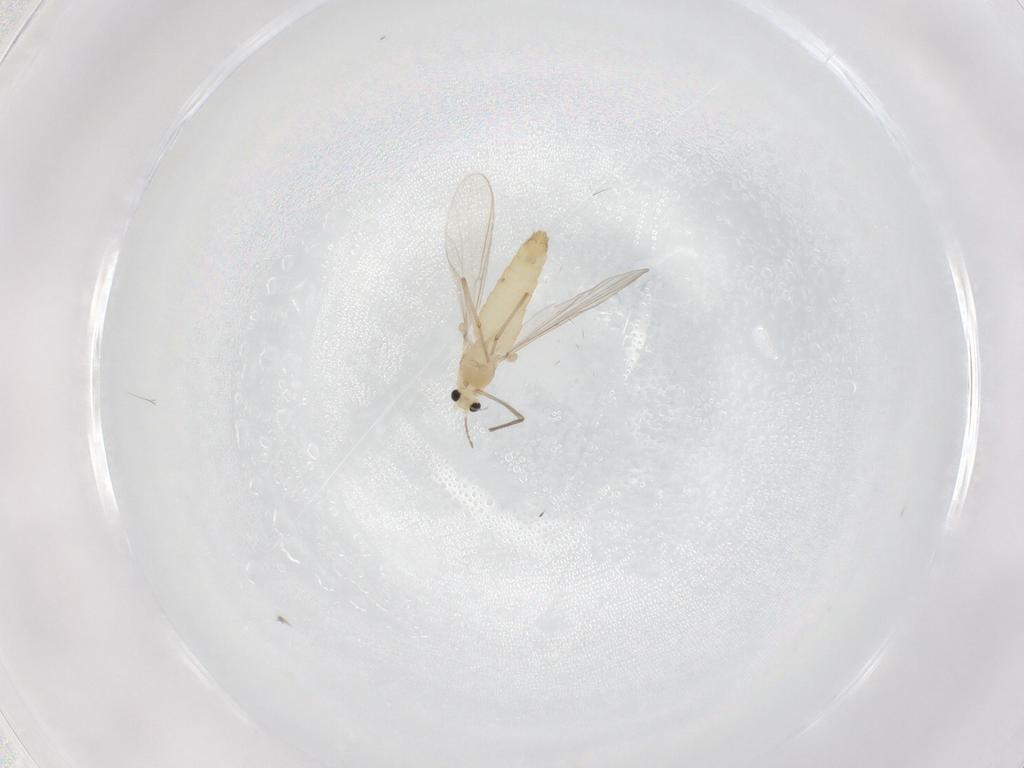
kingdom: Animalia
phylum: Arthropoda
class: Insecta
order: Diptera
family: Chironomidae
